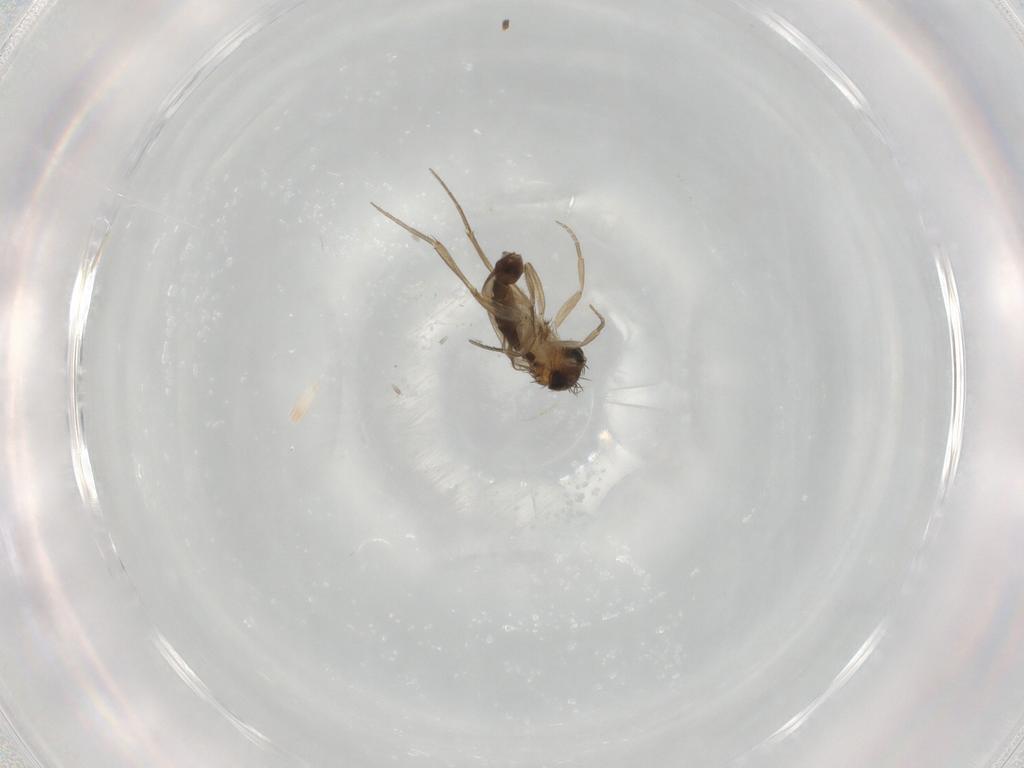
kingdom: Animalia
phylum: Arthropoda
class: Insecta
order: Diptera
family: Phoridae
